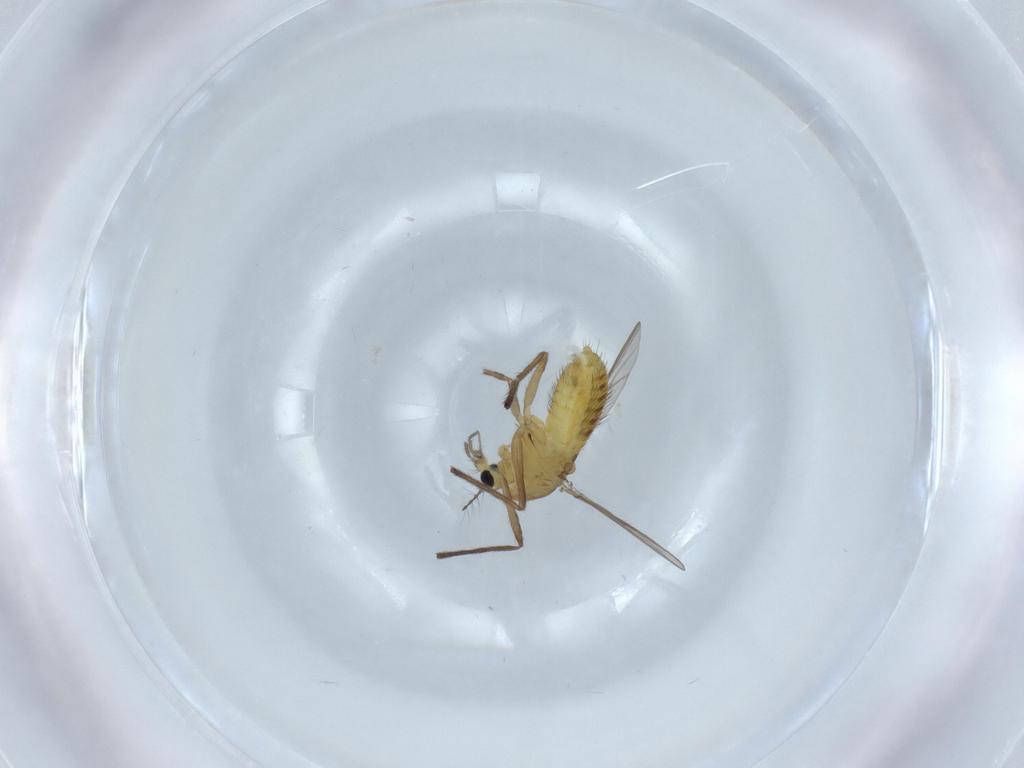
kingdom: Animalia
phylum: Arthropoda
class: Insecta
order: Diptera
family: Chironomidae
